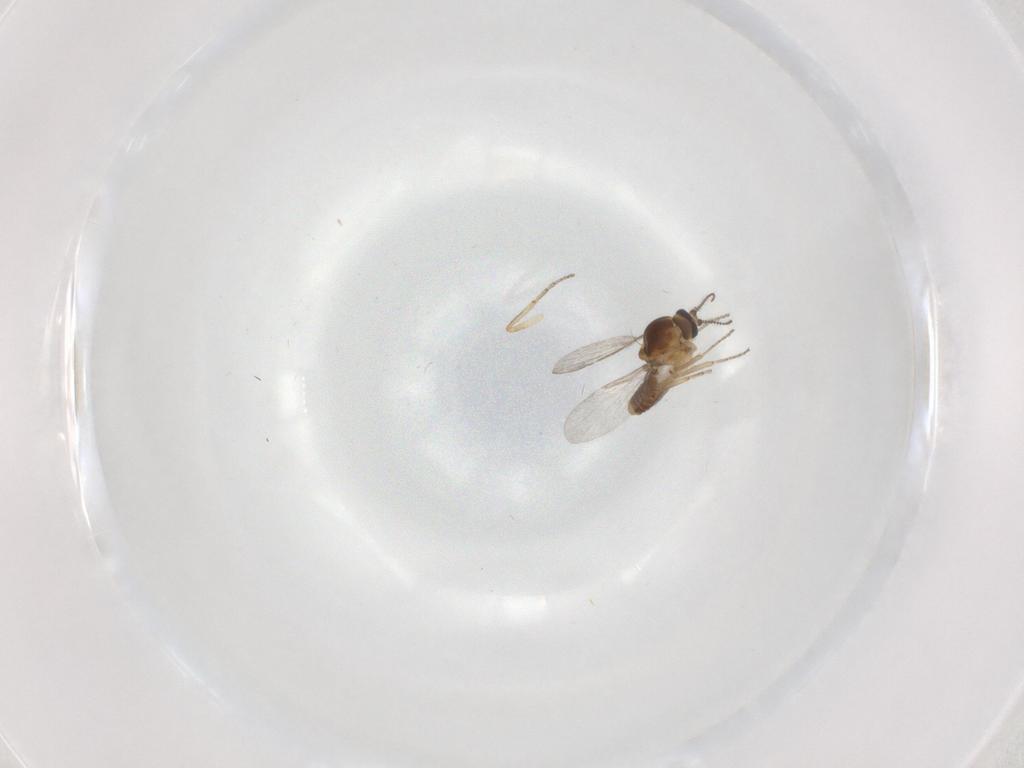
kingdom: Animalia
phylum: Arthropoda
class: Insecta
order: Diptera
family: Ceratopogonidae
